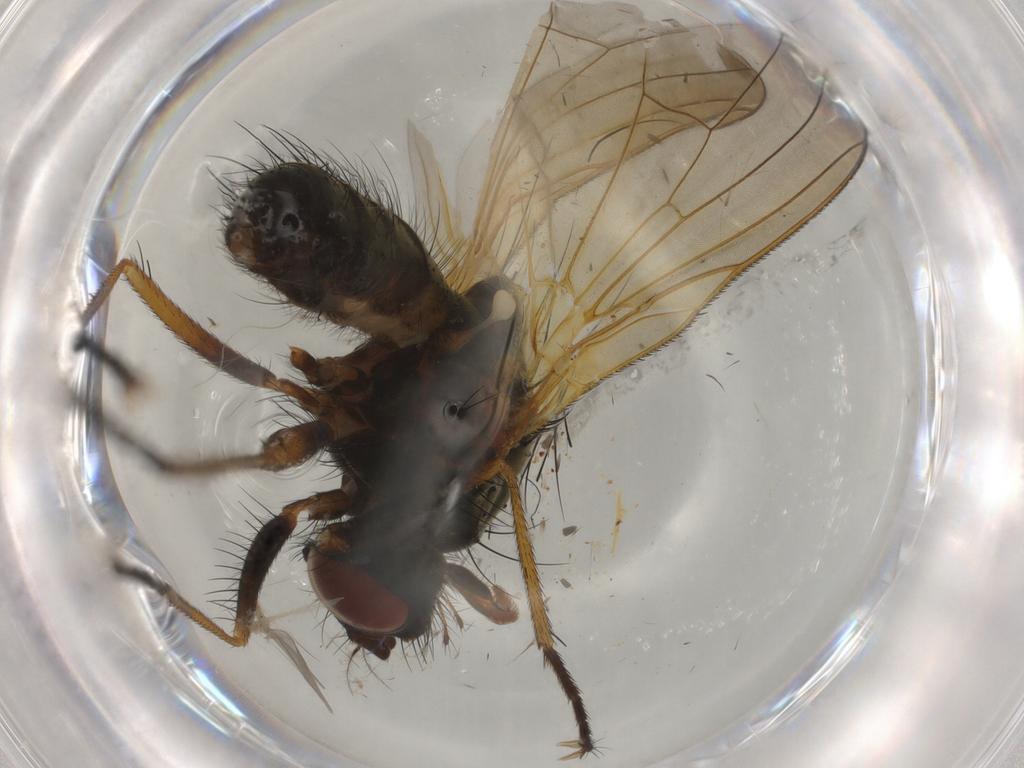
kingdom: Animalia
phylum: Arthropoda
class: Insecta
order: Diptera
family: Anthomyiidae
